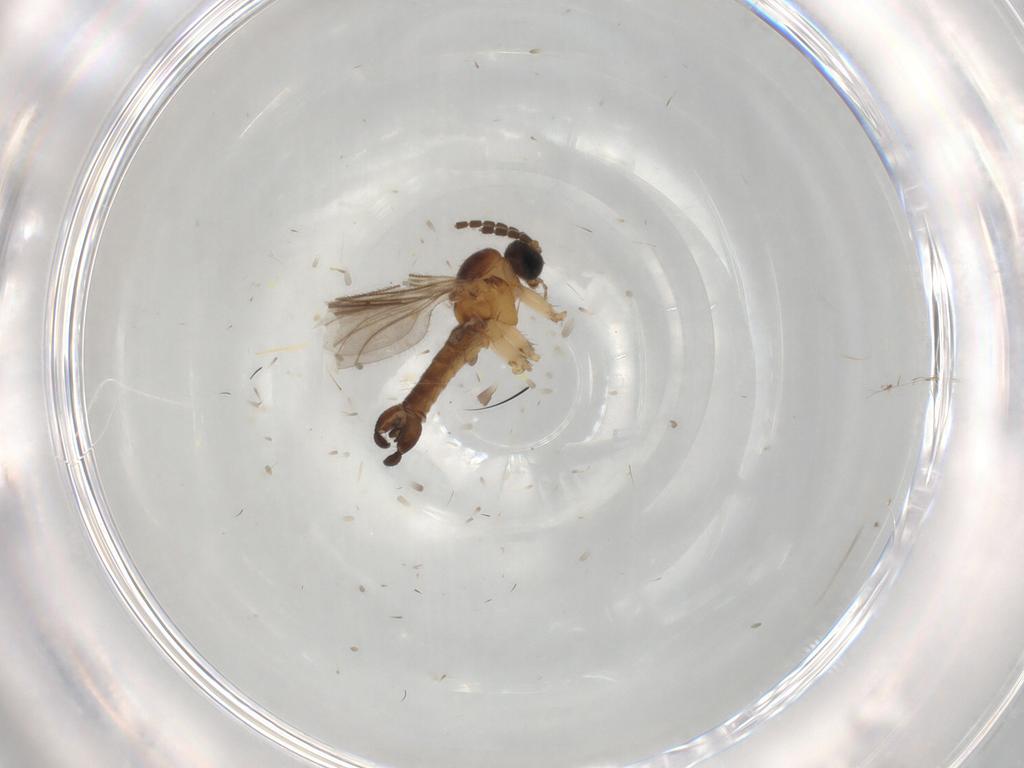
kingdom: Animalia
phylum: Arthropoda
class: Insecta
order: Diptera
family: Sciaridae
